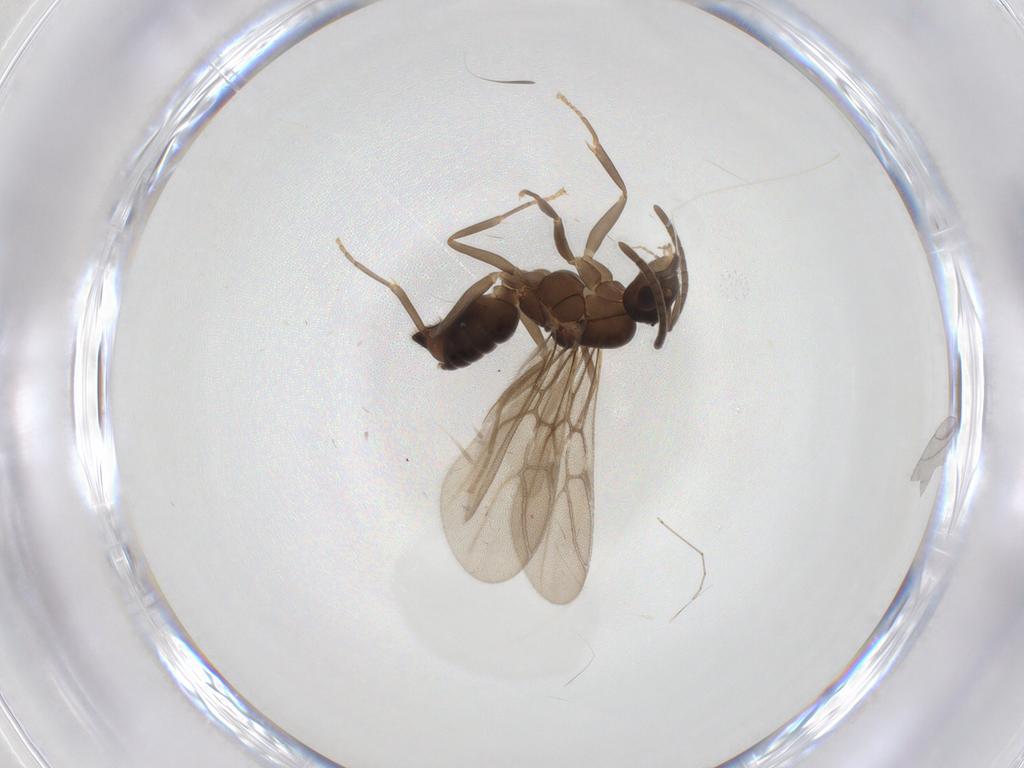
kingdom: Animalia
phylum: Arthropoda
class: Insecta
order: Hymenoptera
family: Formicidae
